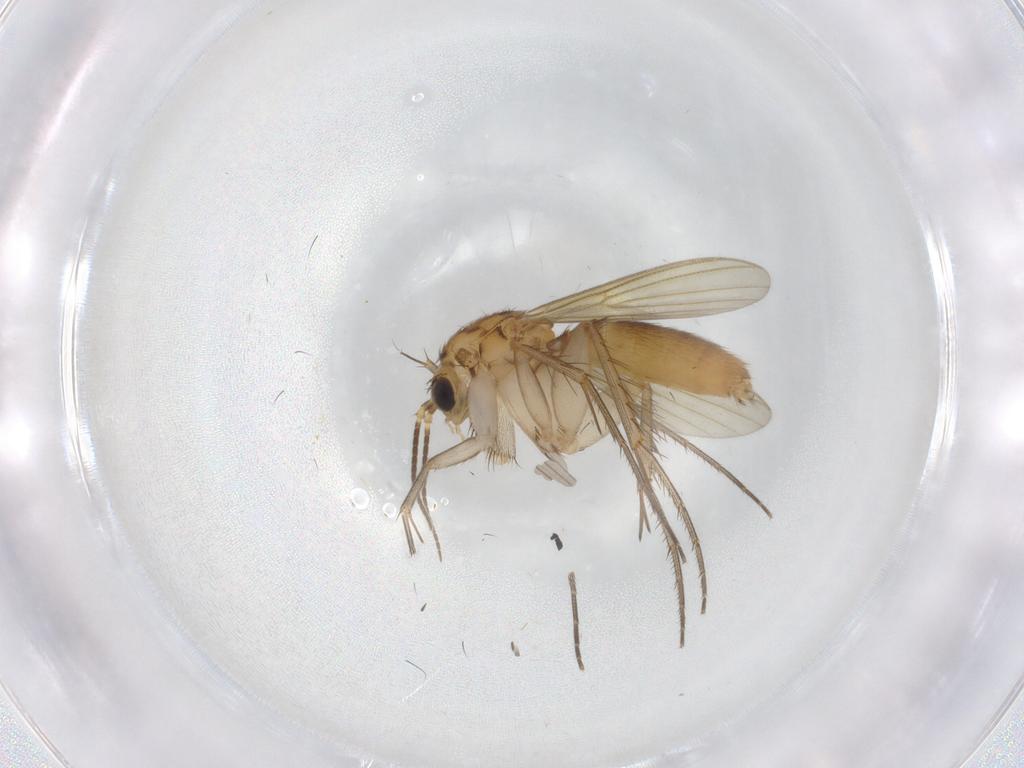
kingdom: Animalia
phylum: Arthropoda
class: Insecta
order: Diptera
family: Mycetophilidae
